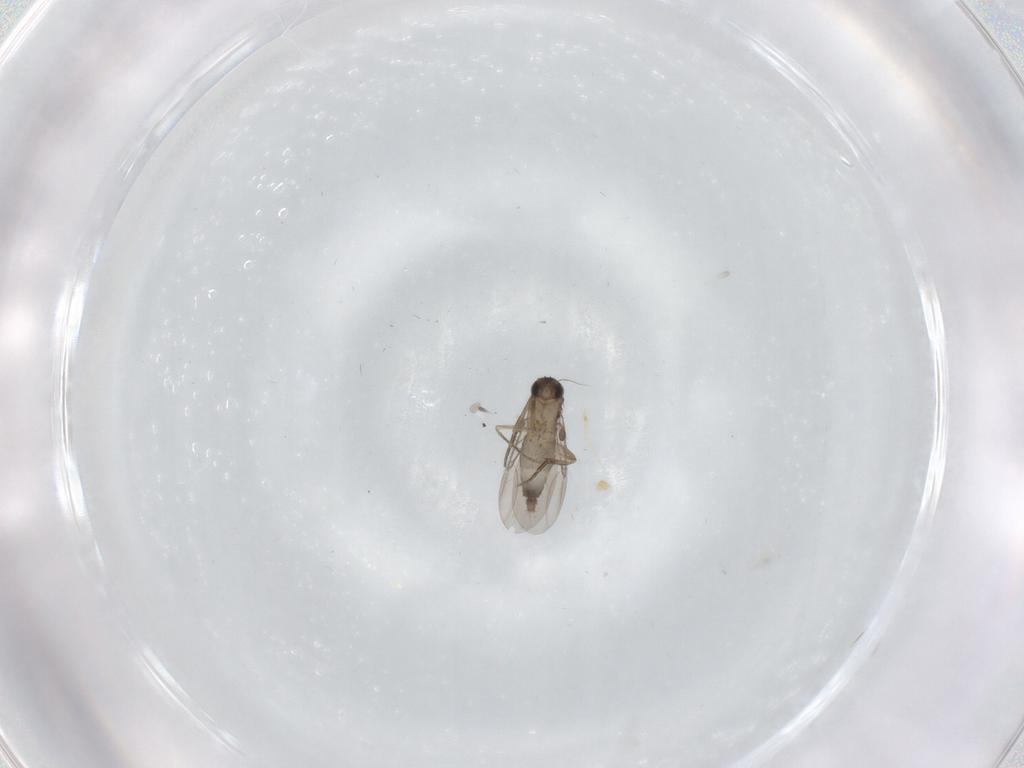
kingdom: Animalia
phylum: Arthropoda
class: Insecta
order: Diptera
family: Phoridae
